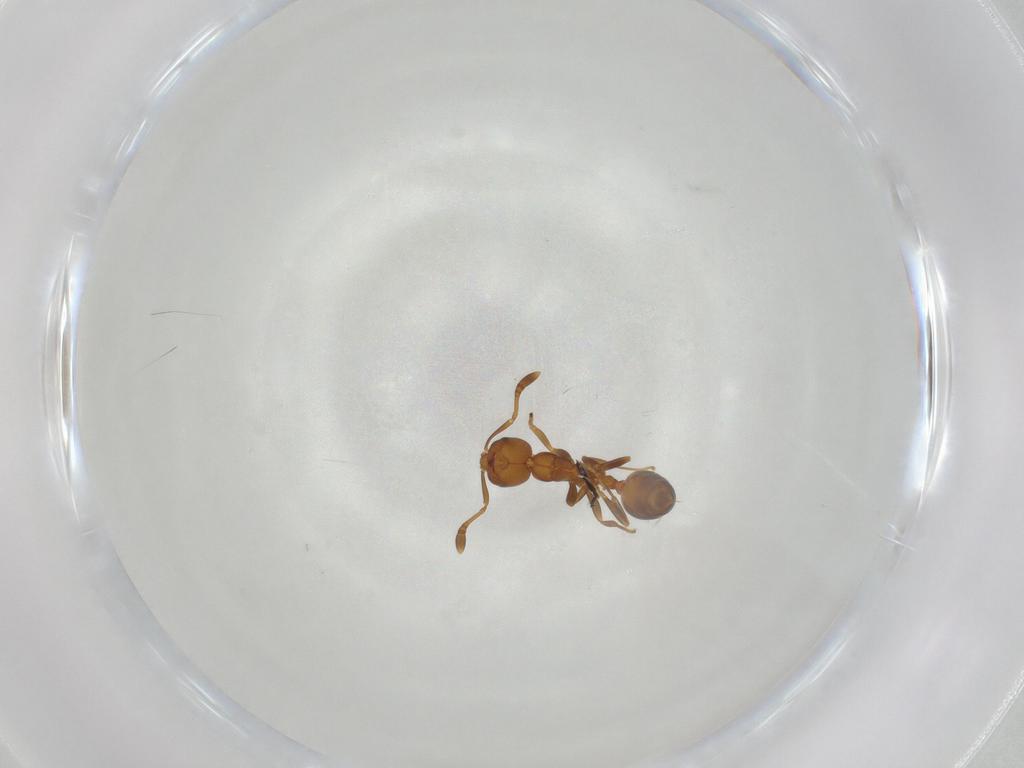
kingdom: Animalia
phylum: Arthropoda
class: Insecta
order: Hymenoptera
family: Formicidae
